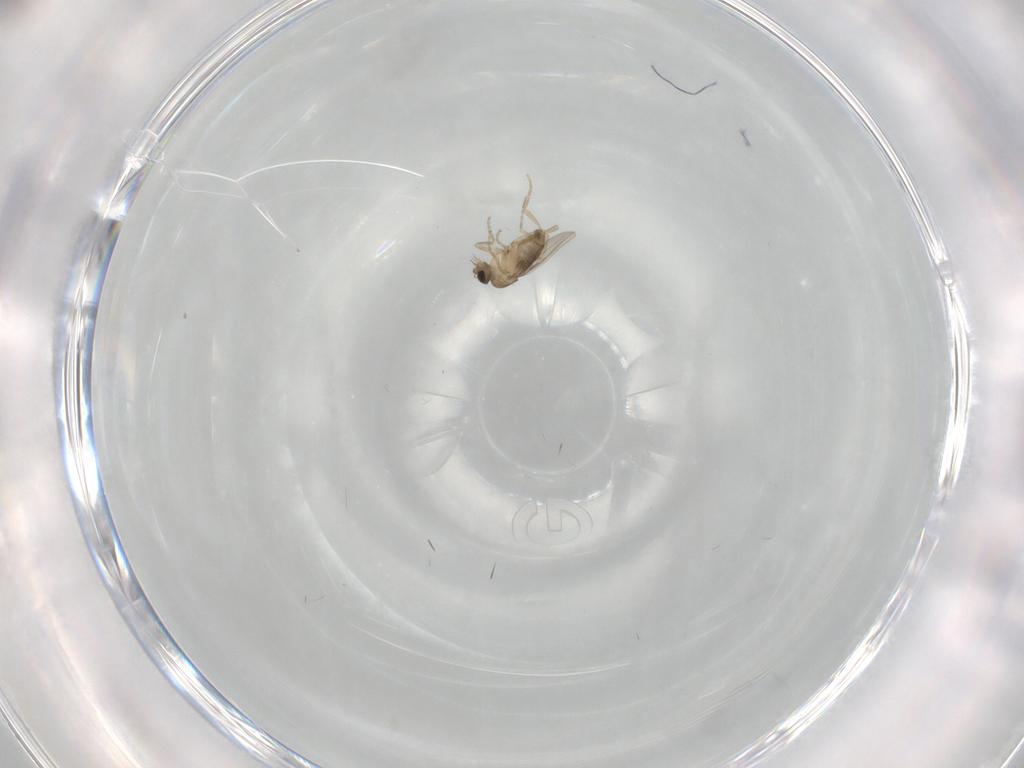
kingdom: Animalia
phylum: Arthropoda
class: Insecta
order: Diptera
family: Phoridae
